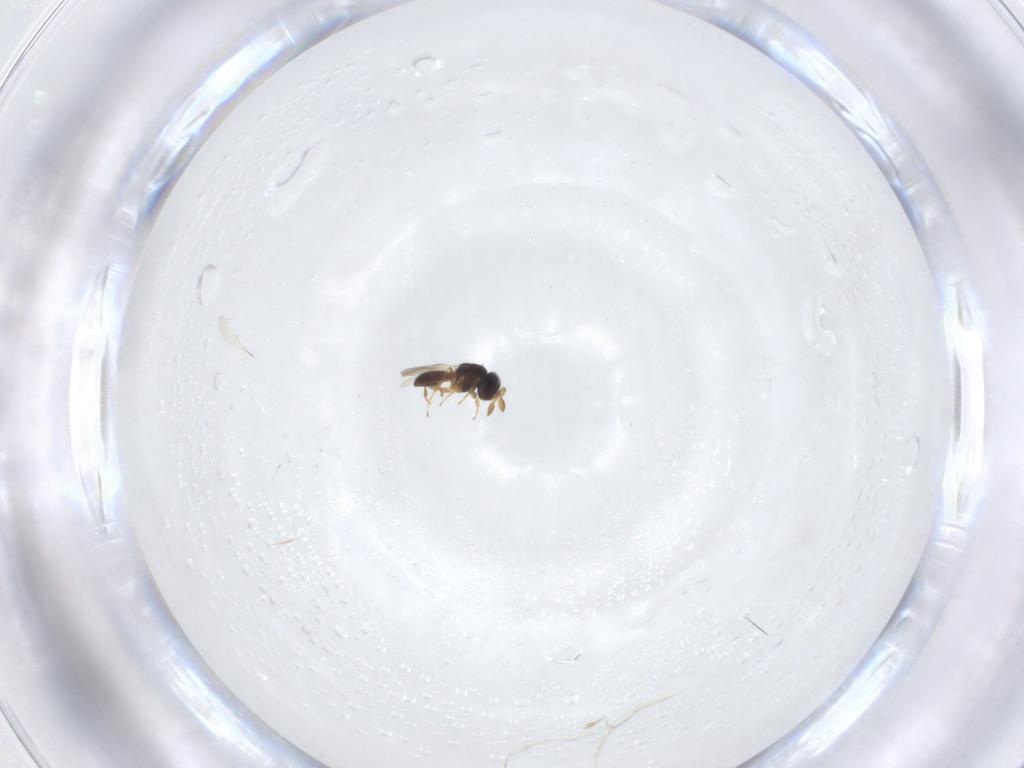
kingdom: Animalia
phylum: Arthropoda
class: Insecta
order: Hymenoptera
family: Scelionidae
